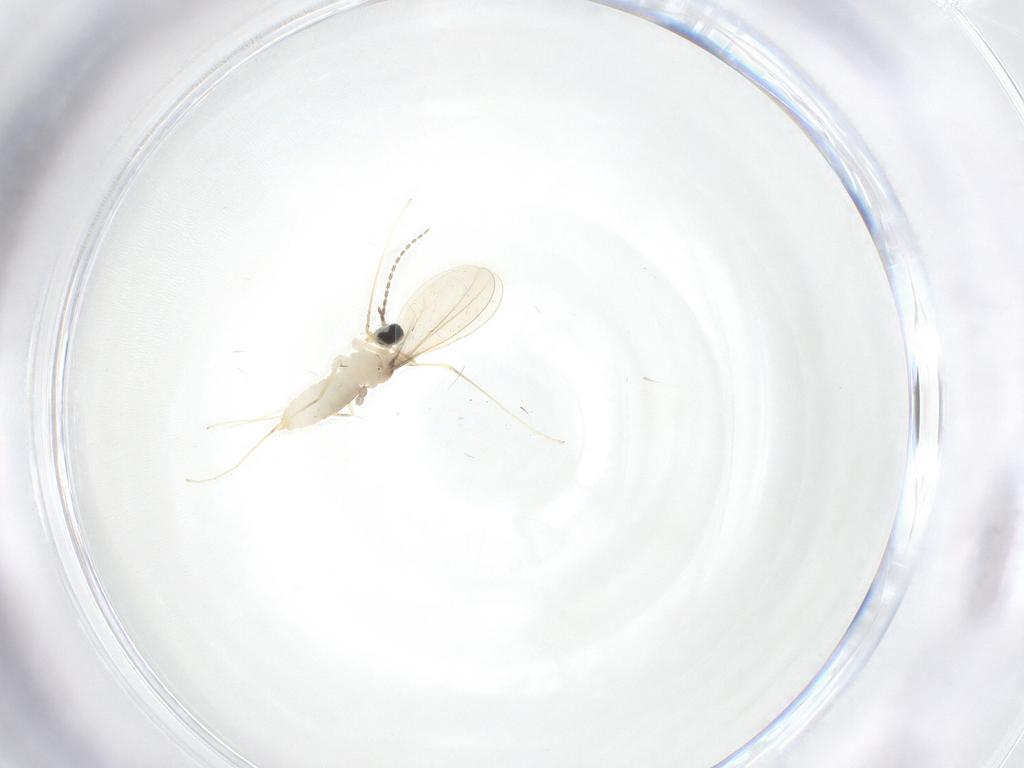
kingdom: Animalia
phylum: Arthropoda
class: Insecta
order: Diptera
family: Cecidomyiidae
